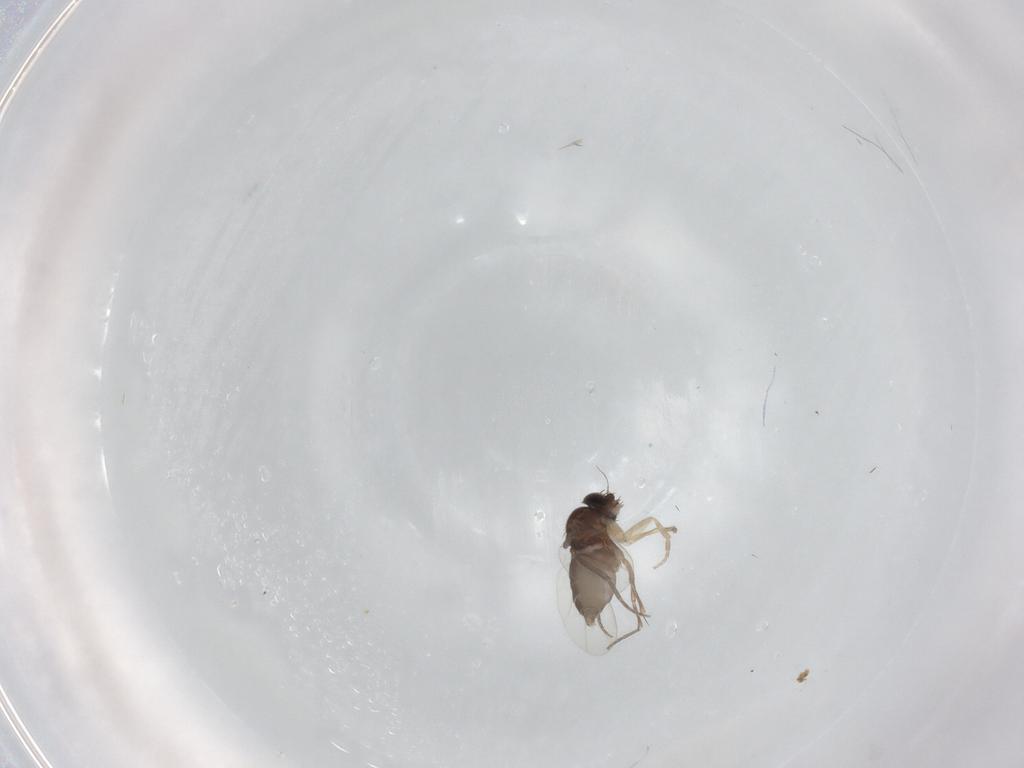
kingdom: Animalia
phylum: Arthropoda
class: Insecta
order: Diptera
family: Phoridae
